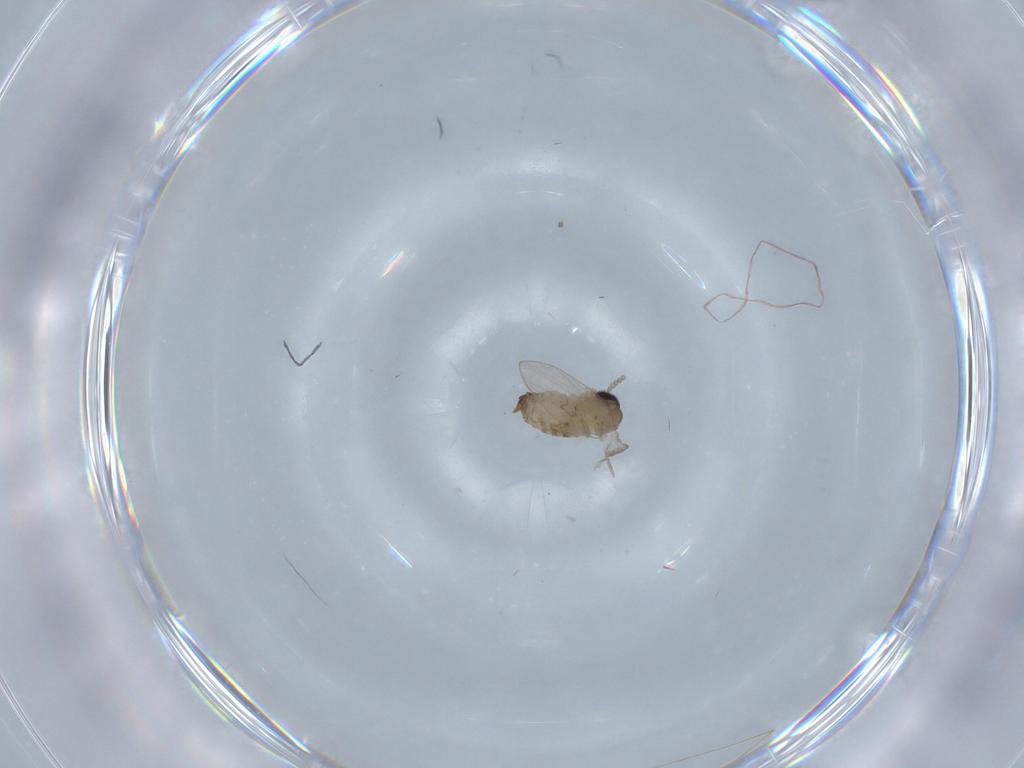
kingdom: Animalia
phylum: Arthropoda
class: Insecta
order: Diptera
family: Psychodidae
